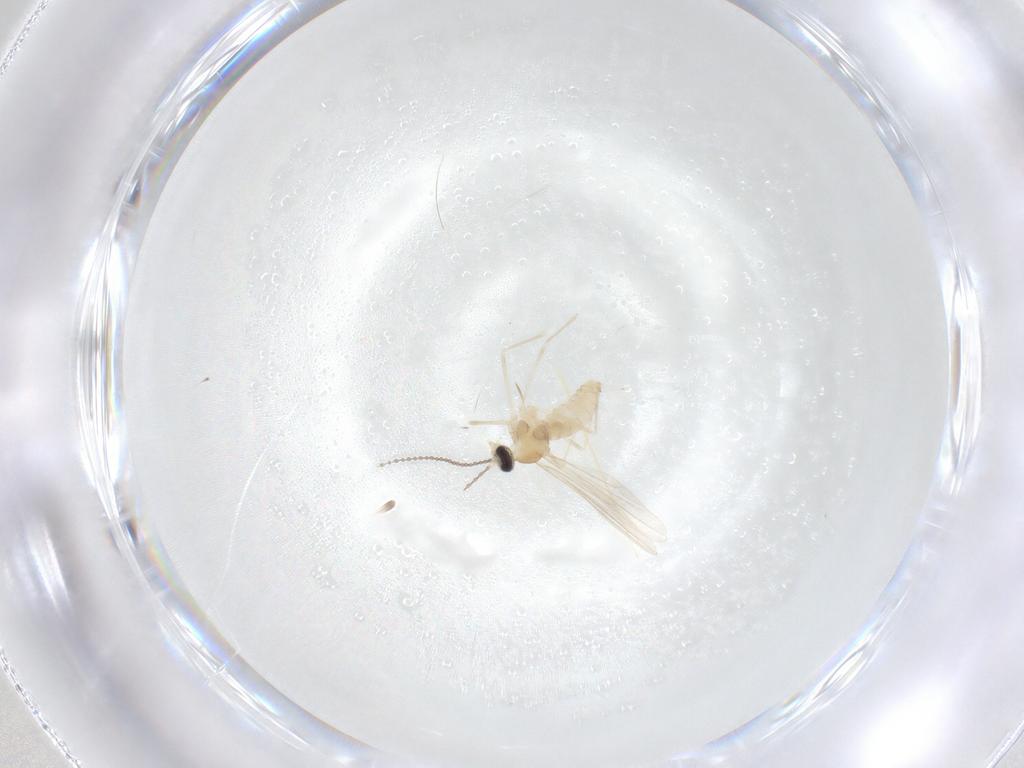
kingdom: Animalia
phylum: Arthropoda
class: Insecta
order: Diptera
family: Cecidomyiidae
